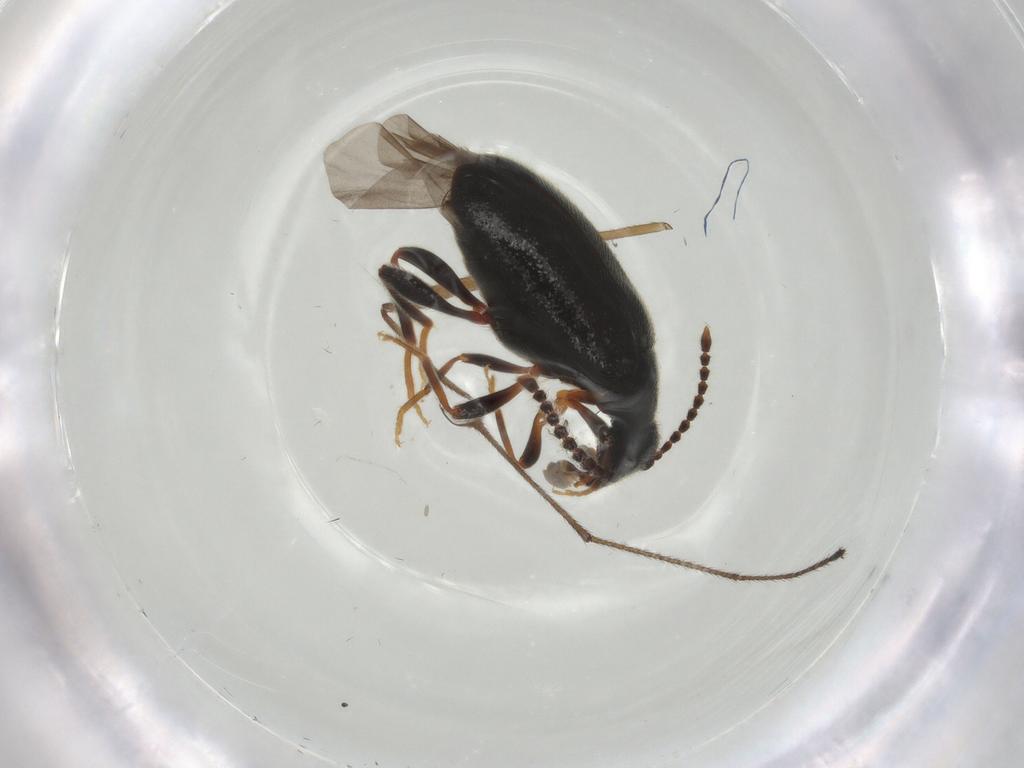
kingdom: Animalia
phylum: Arthropoda
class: Insecta
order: Coleoptera
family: Aderidae
